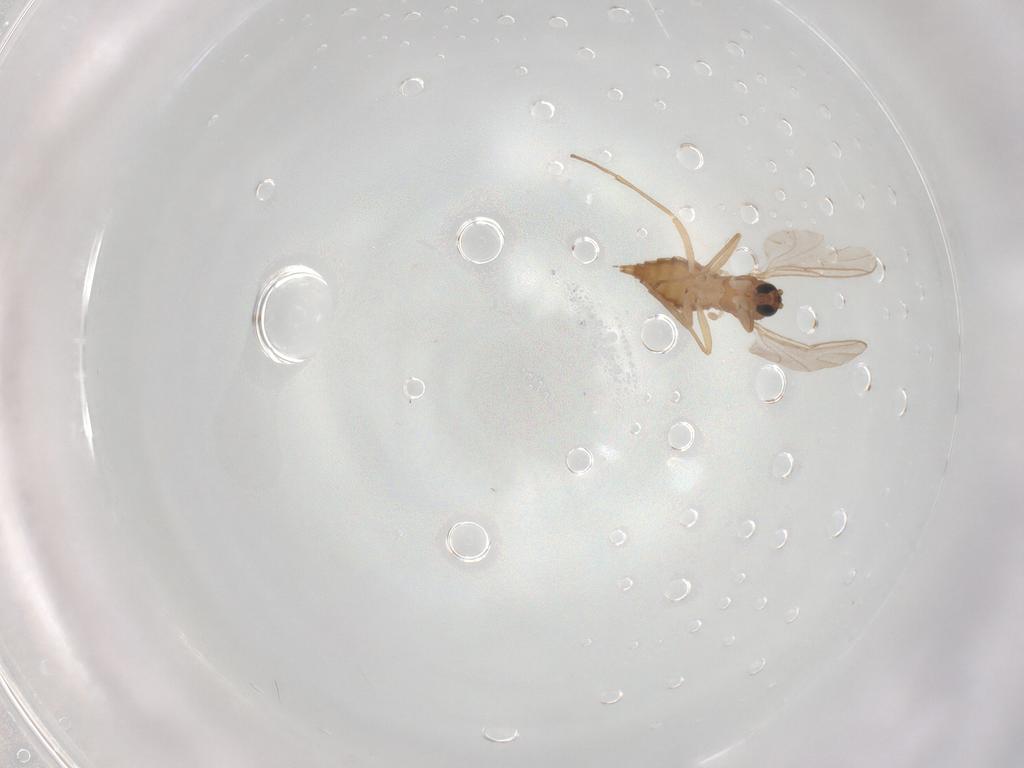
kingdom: Animalia
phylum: Arthropoda
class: Insecta
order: Diptera
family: Sciaridae
